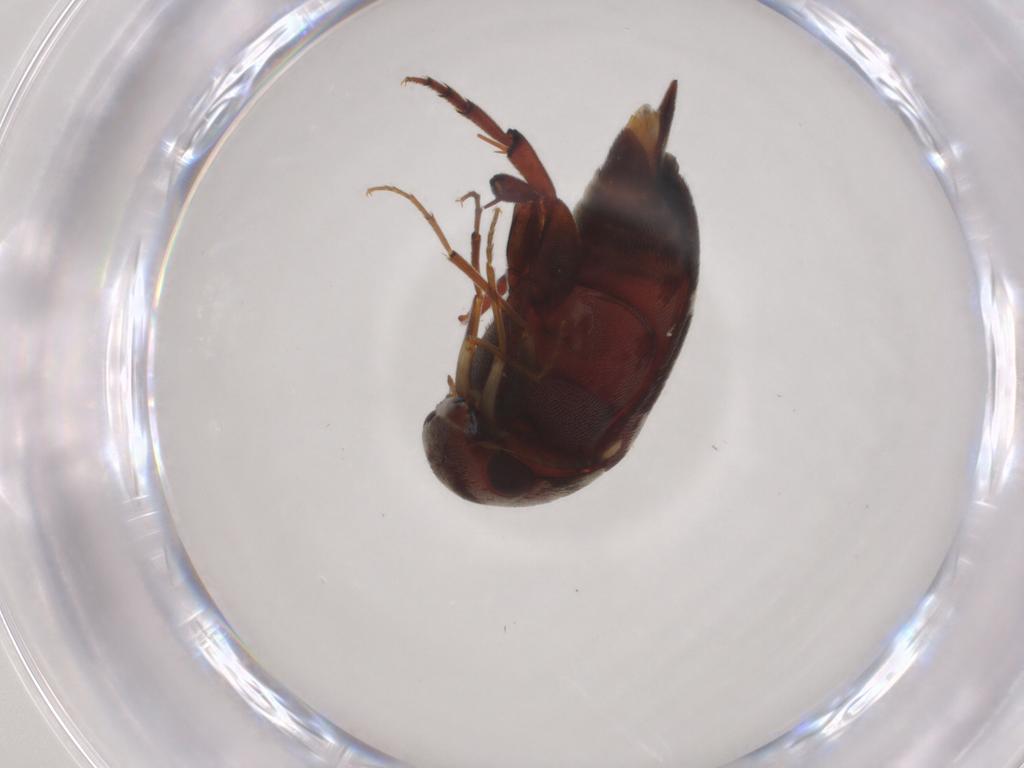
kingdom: Animalia
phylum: Arthropoda
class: Insecta
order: Coleoptera
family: Mordellidae
